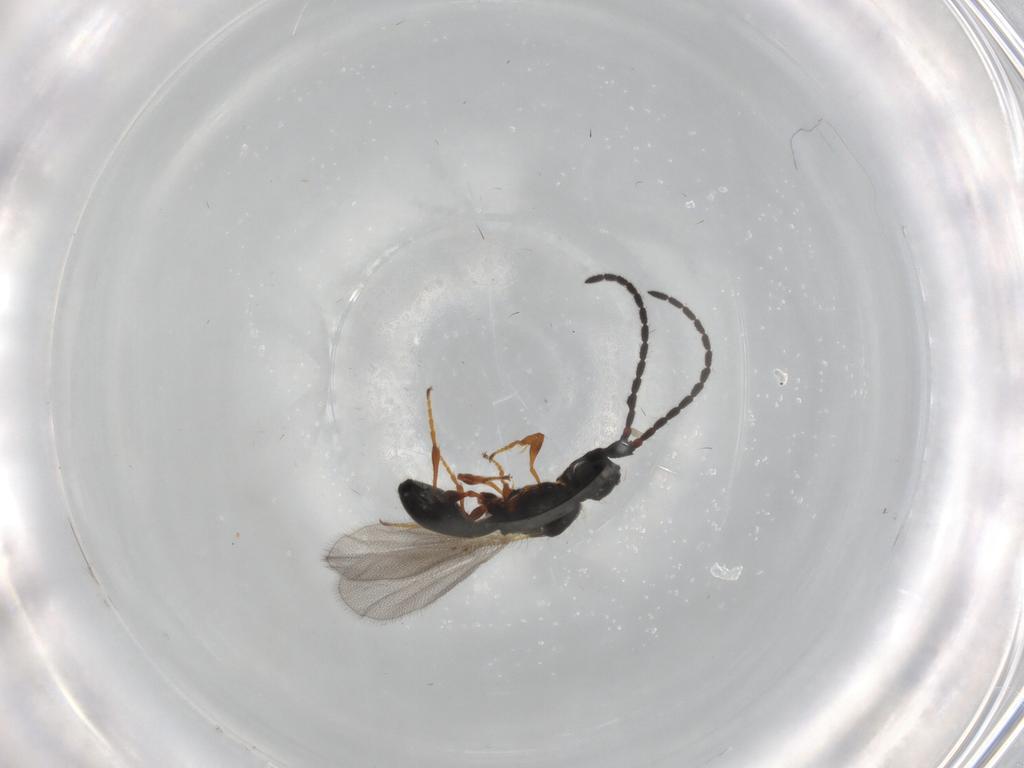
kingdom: Animalia
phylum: Arthropoda
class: Insecta
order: Hymenoptera
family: Diapriidae
